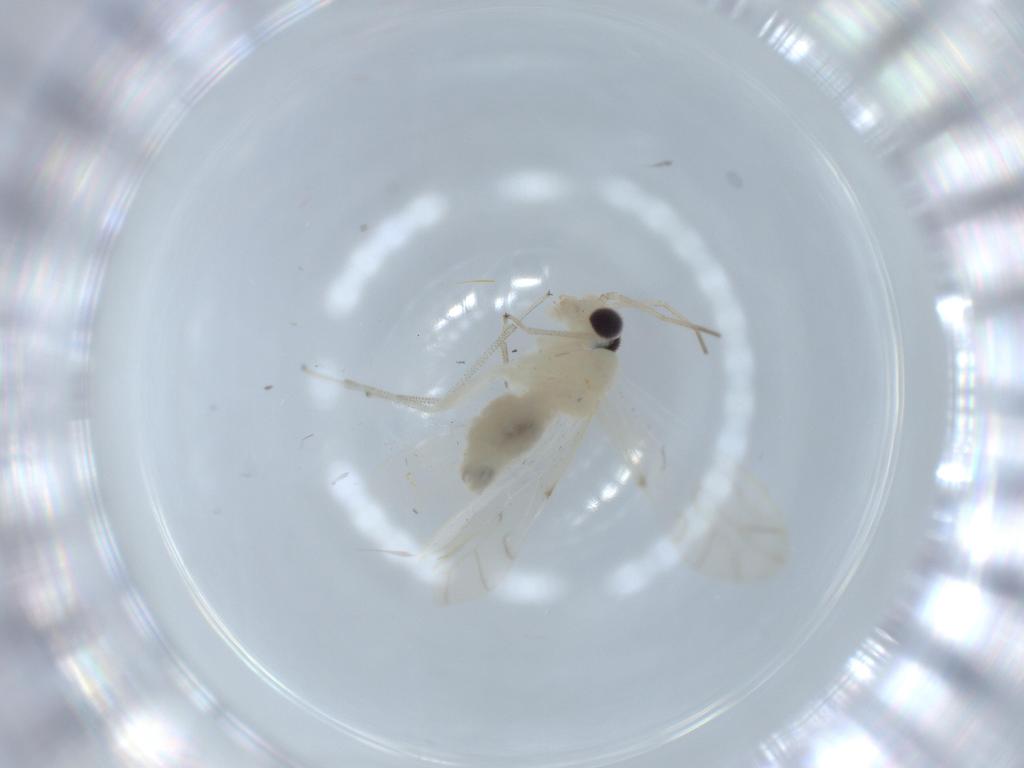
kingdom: Animalia
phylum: Arthropoda
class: Insecta
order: Psocodea
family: Caeciliusidae
